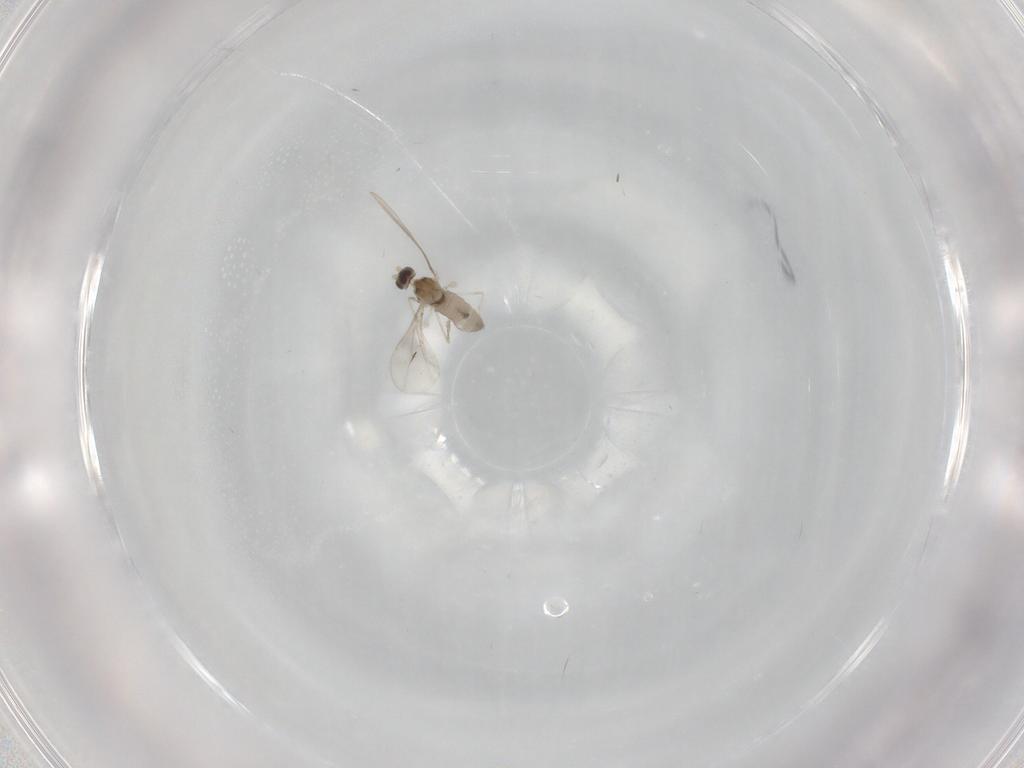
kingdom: Animalia
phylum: Arthropoda
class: Insecta
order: Diptera
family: Cecidomyiidae
